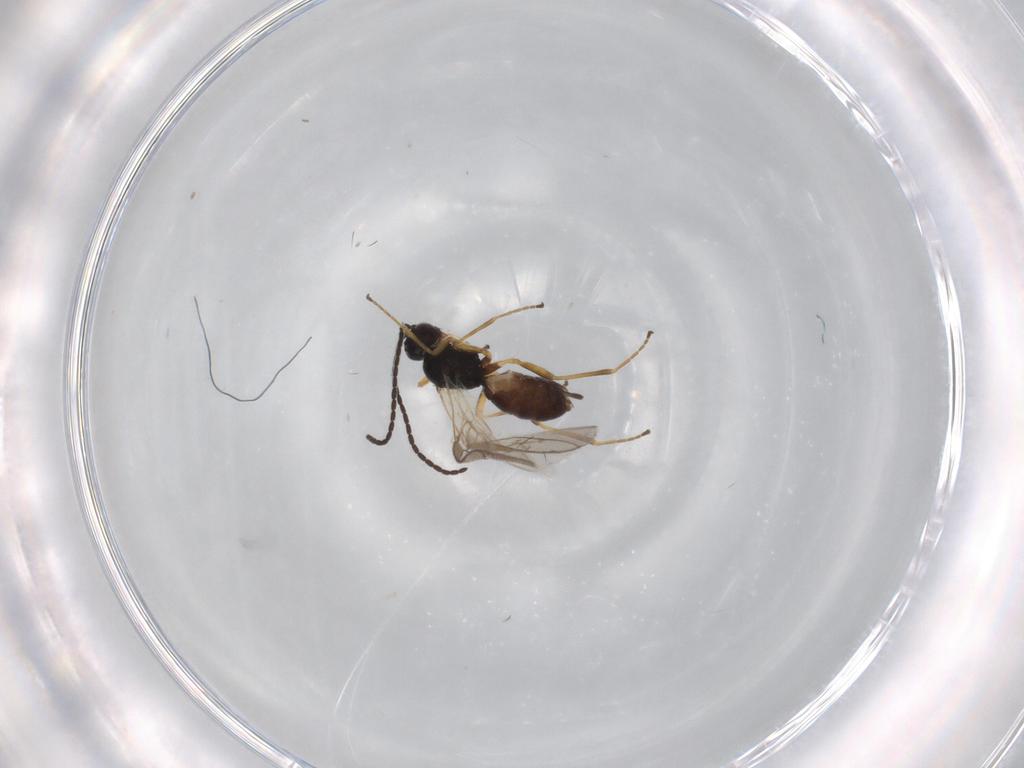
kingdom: Animalia
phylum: Arthropoda
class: Insecta
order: Hymenoptera
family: Braconidae
